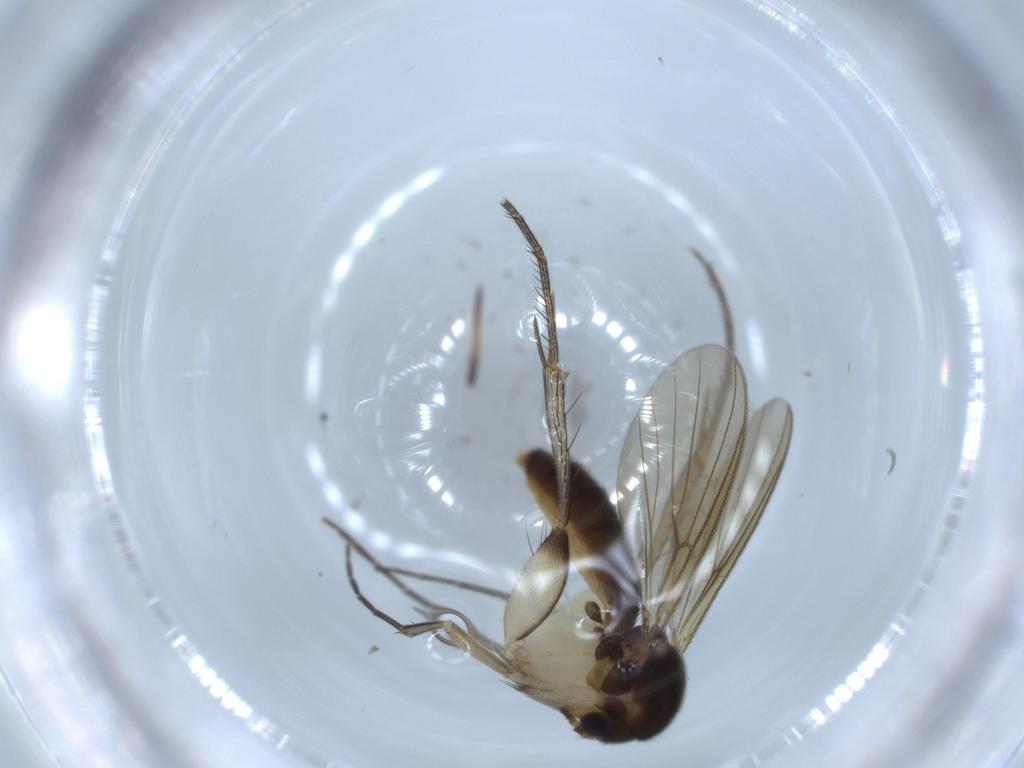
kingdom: Animalia
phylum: Arthropoda
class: Insecta
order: Diptera
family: Mycetophilidae
